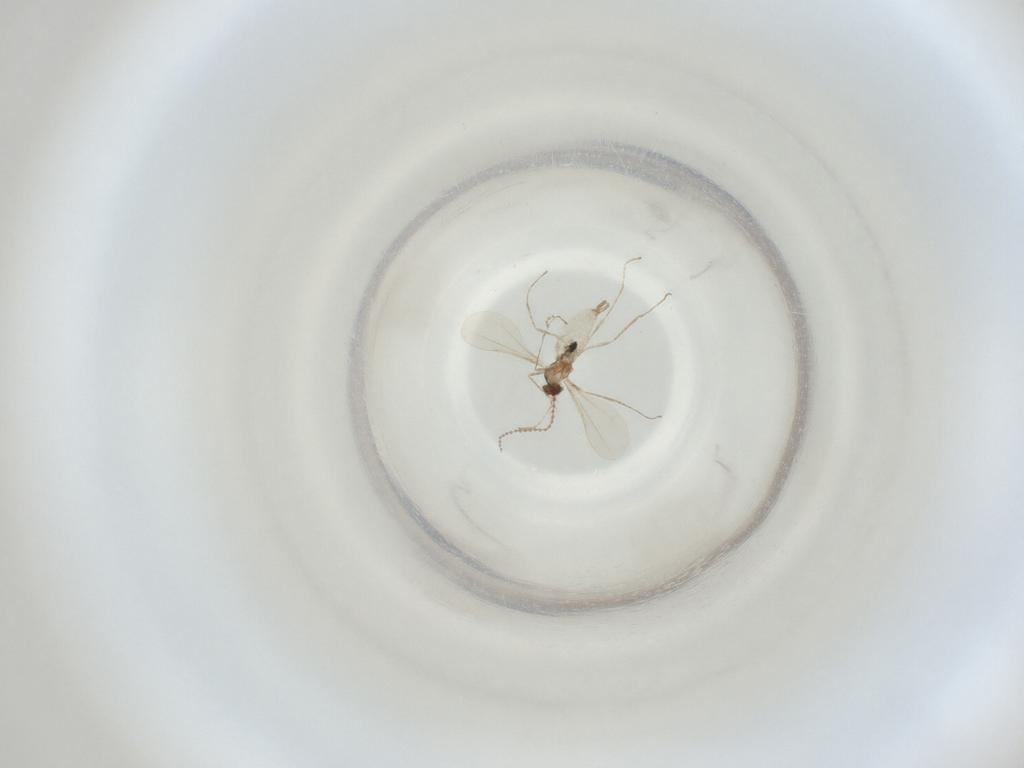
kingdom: Animalia
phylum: Arthropoda
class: Insecta
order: Diptera
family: Cecidomyiidae
